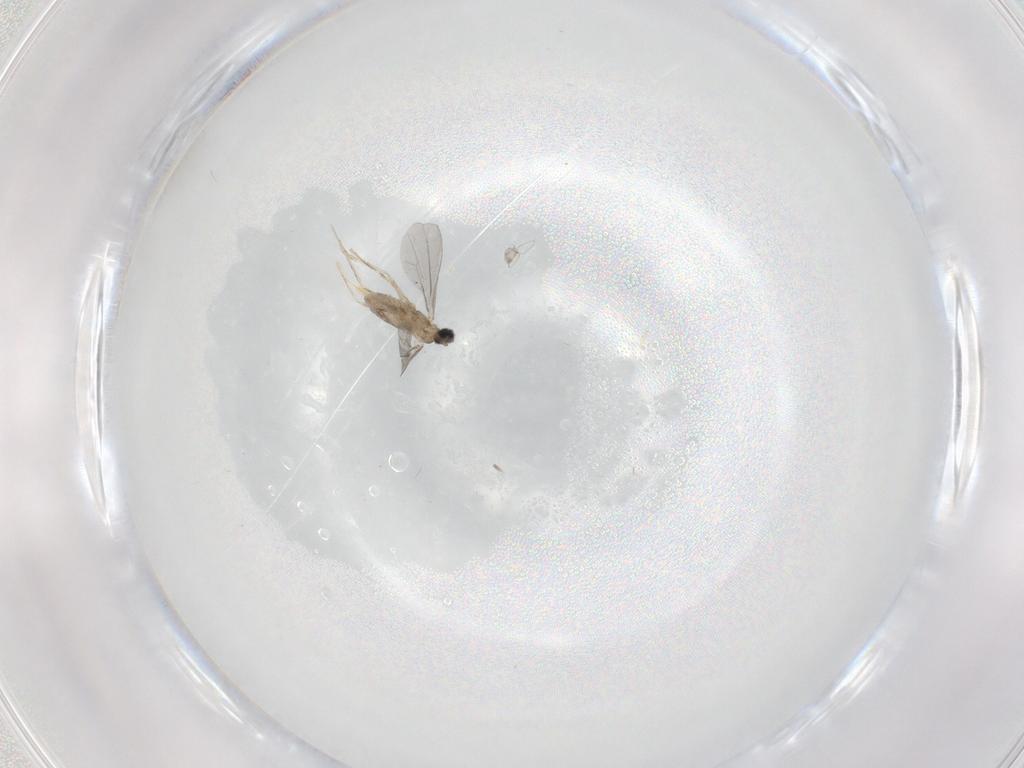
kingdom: Animalia
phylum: Arthropoda
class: Insecta
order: Diptera
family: Cecidomyiidae
